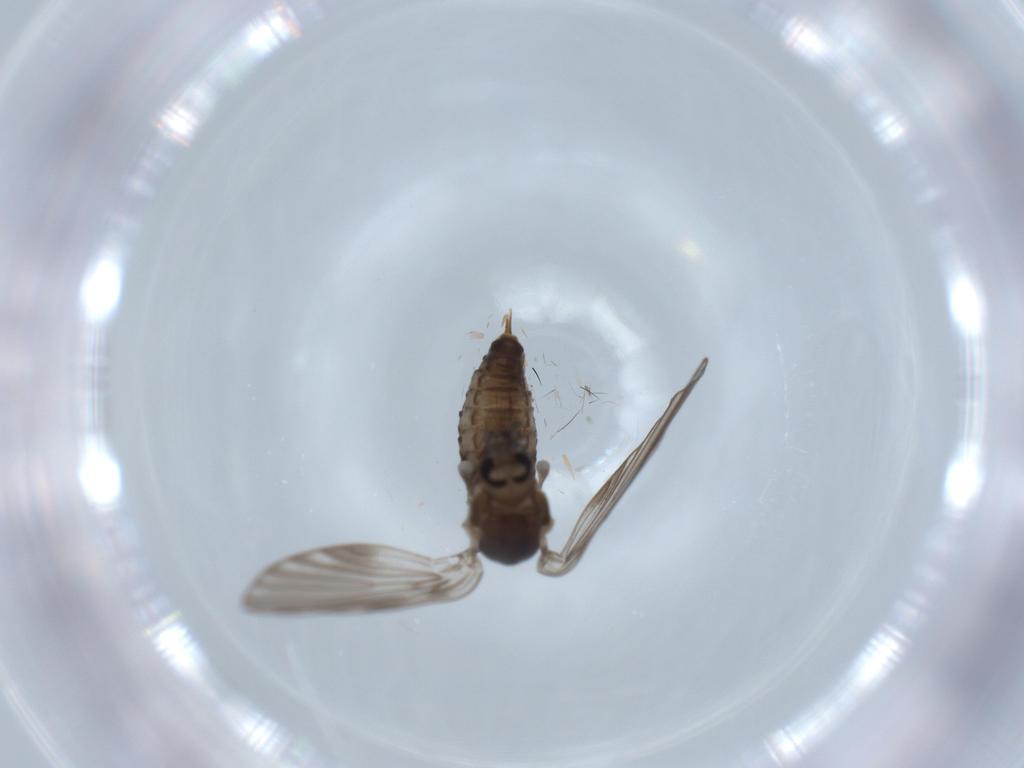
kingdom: Animalia
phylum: Arthropoda
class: Insecta
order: Diptera
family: Psychodidae
